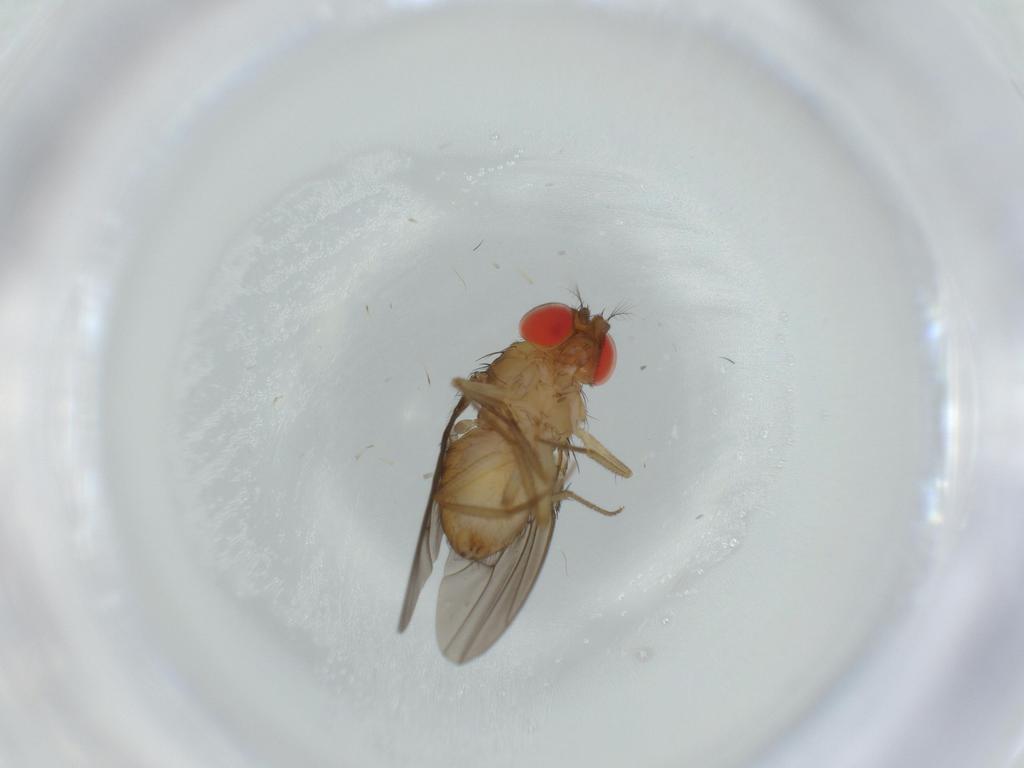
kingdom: Animalia
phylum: Arthropoda
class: Insecta
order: Diptera
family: Drosophilidae
